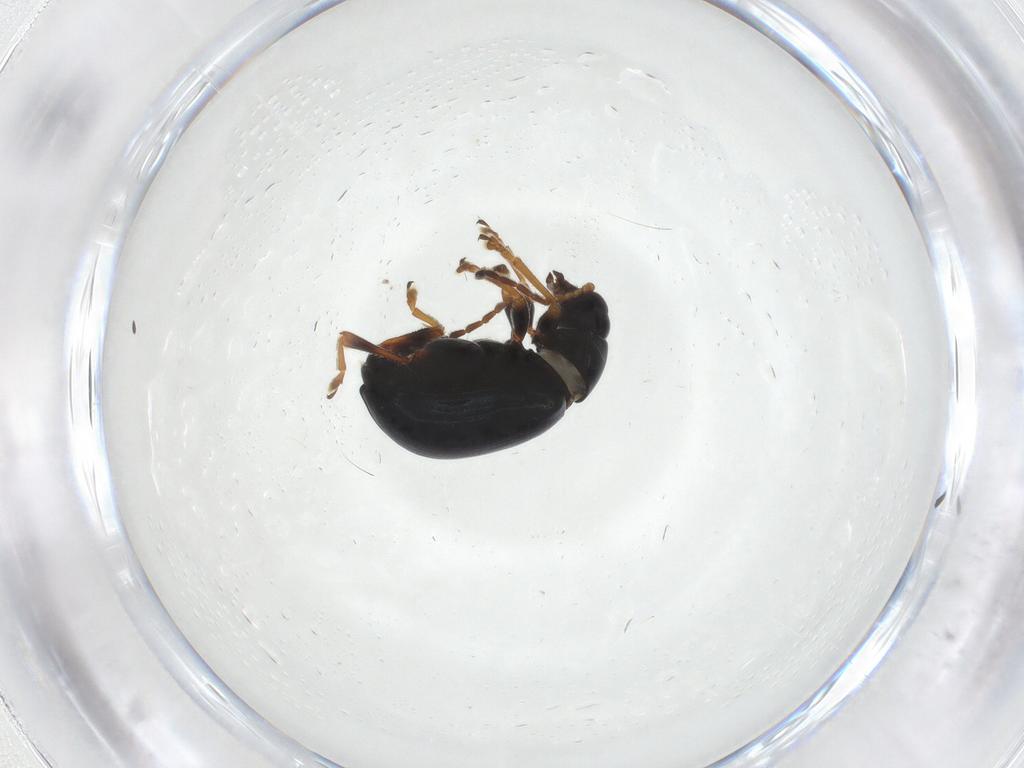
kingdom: Animalia
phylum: Arthropoda
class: Insecta
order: Coleoptera
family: Chrysomelidae
